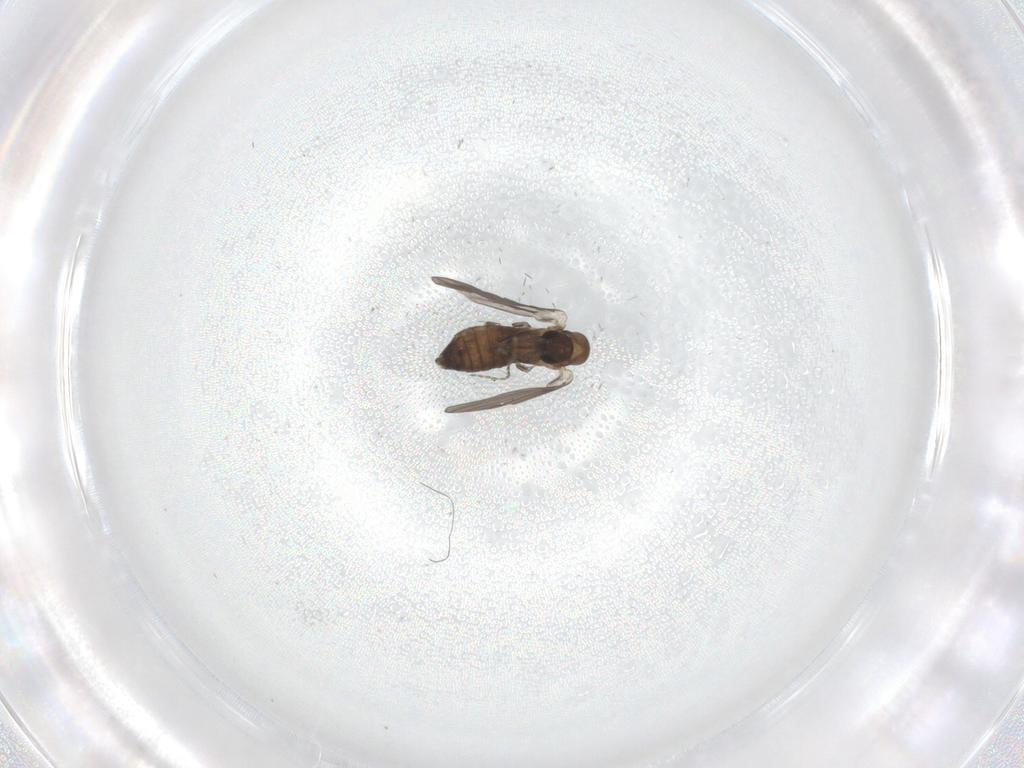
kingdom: Animalia
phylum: Arthropoda
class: Insecta
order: Diptera
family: Psychodidae
